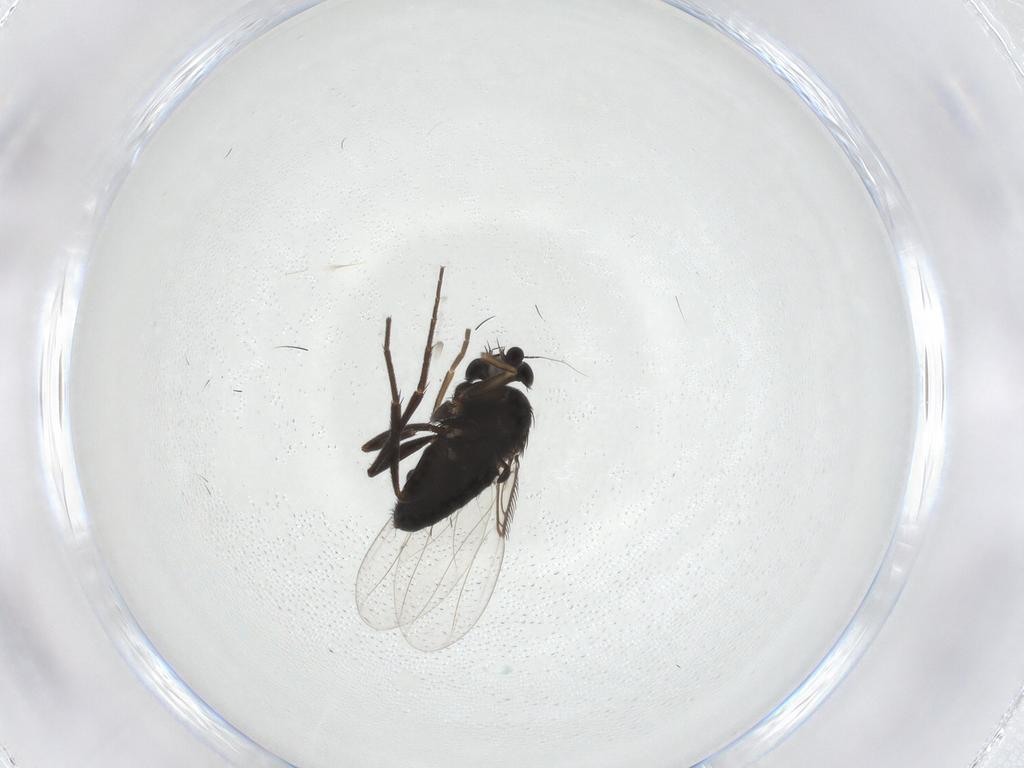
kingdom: Animalia
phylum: Arthropoda
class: Insecta
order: Diptera
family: Phoridae
